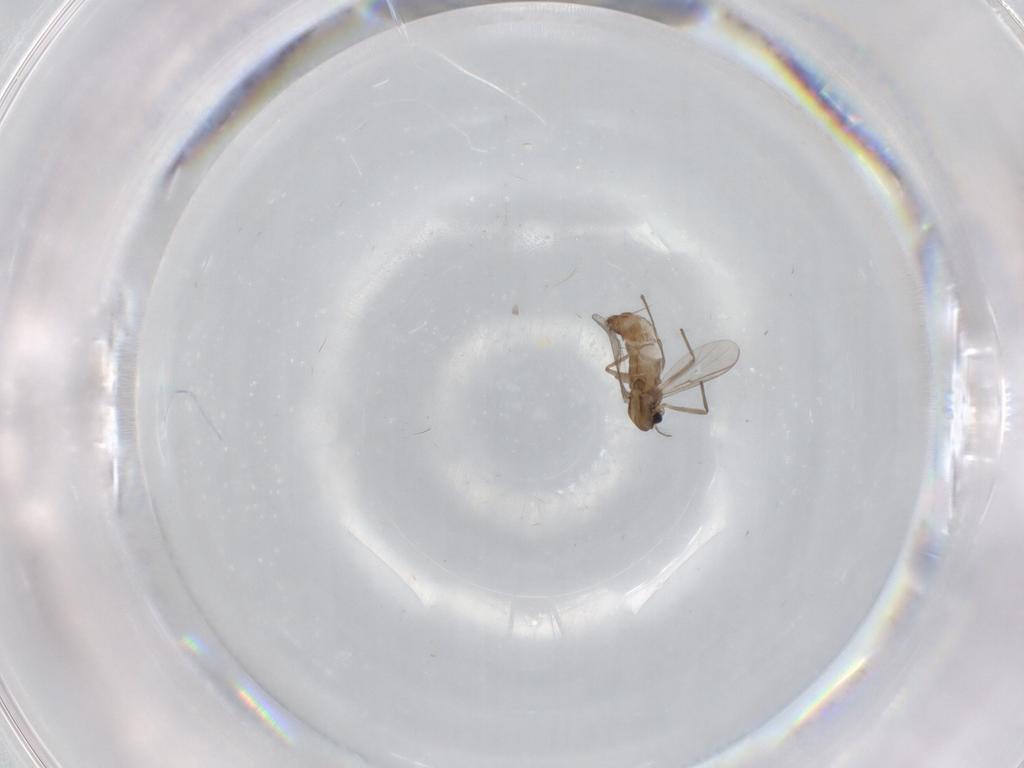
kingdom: Animalia
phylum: Arthropoda
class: Insecta
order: Diptera
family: Chironomidae
